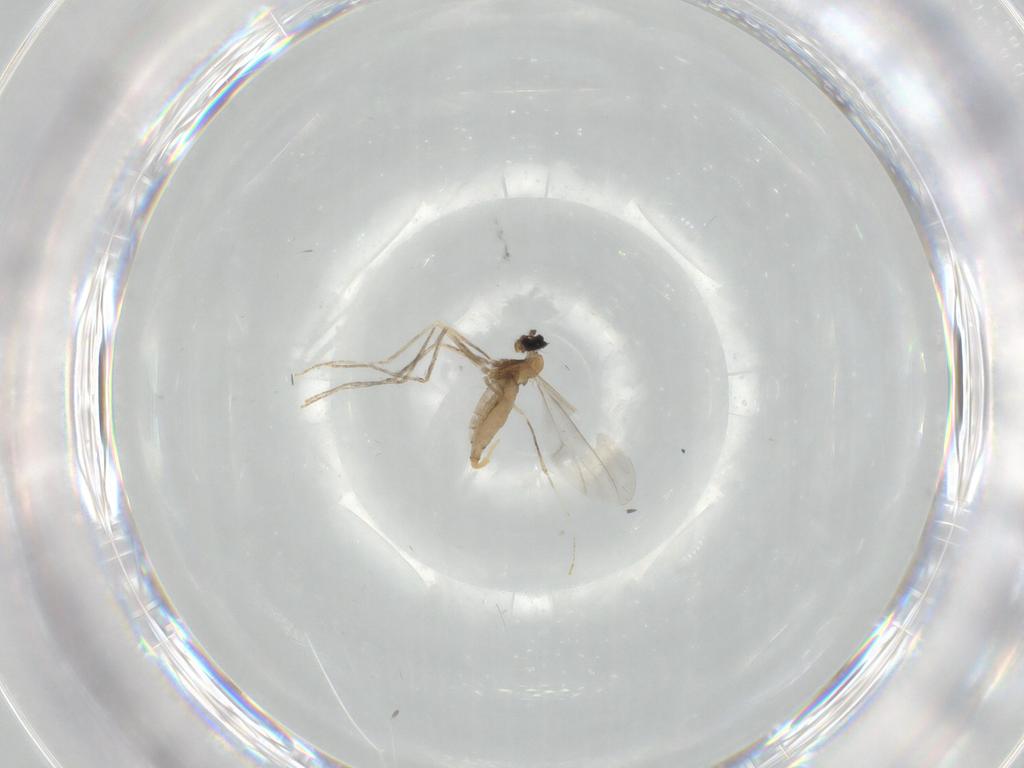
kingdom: Animalia
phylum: Arthropoda
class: Insecta
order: Diptera
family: Cecidomyiidae
